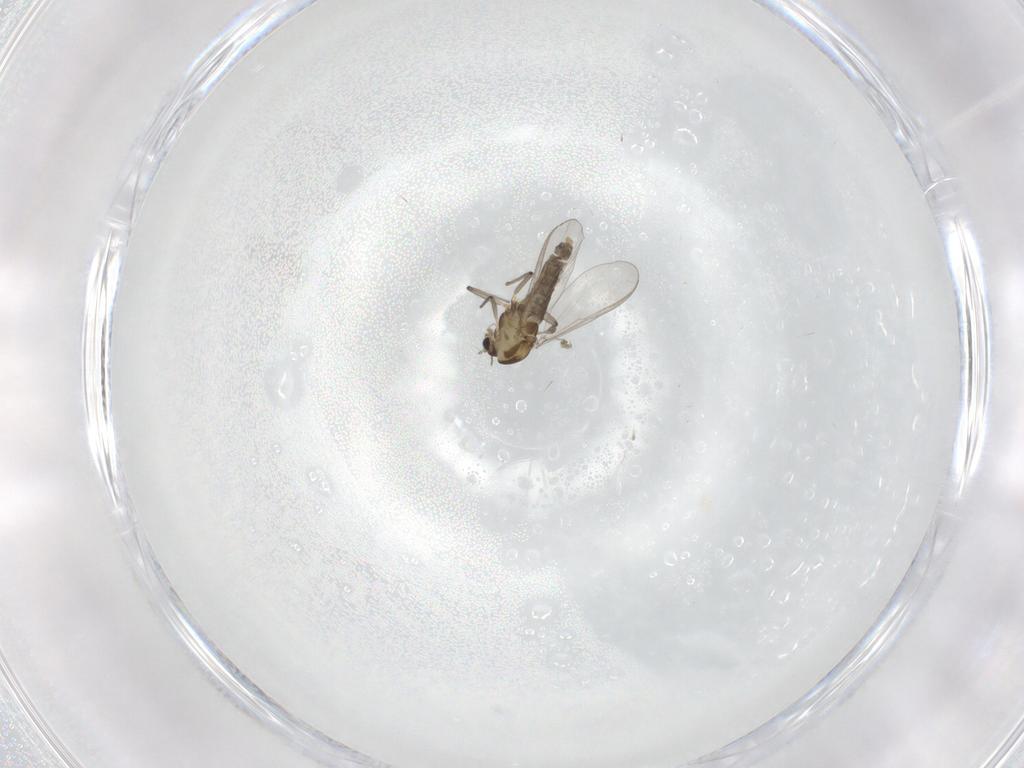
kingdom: Animalia
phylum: Arthropoda
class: Insecta
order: Diptera
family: Chironomidae
